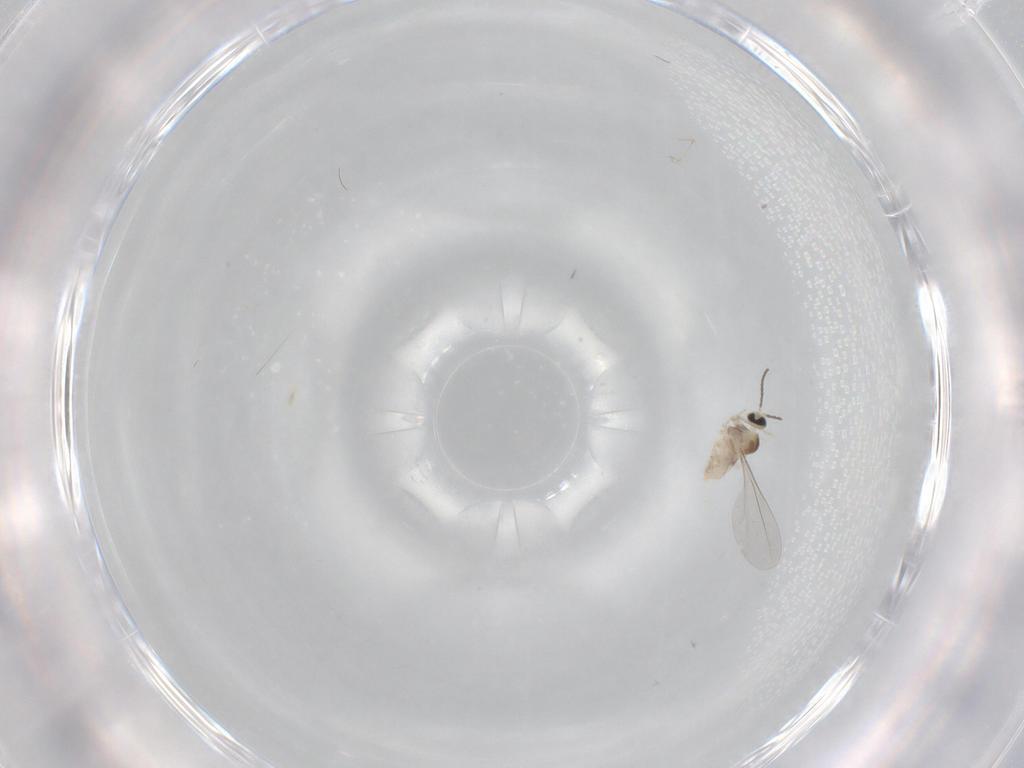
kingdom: Animalia
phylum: Arthropoda
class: Insecta
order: Diptera
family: Cecidomyiidae
